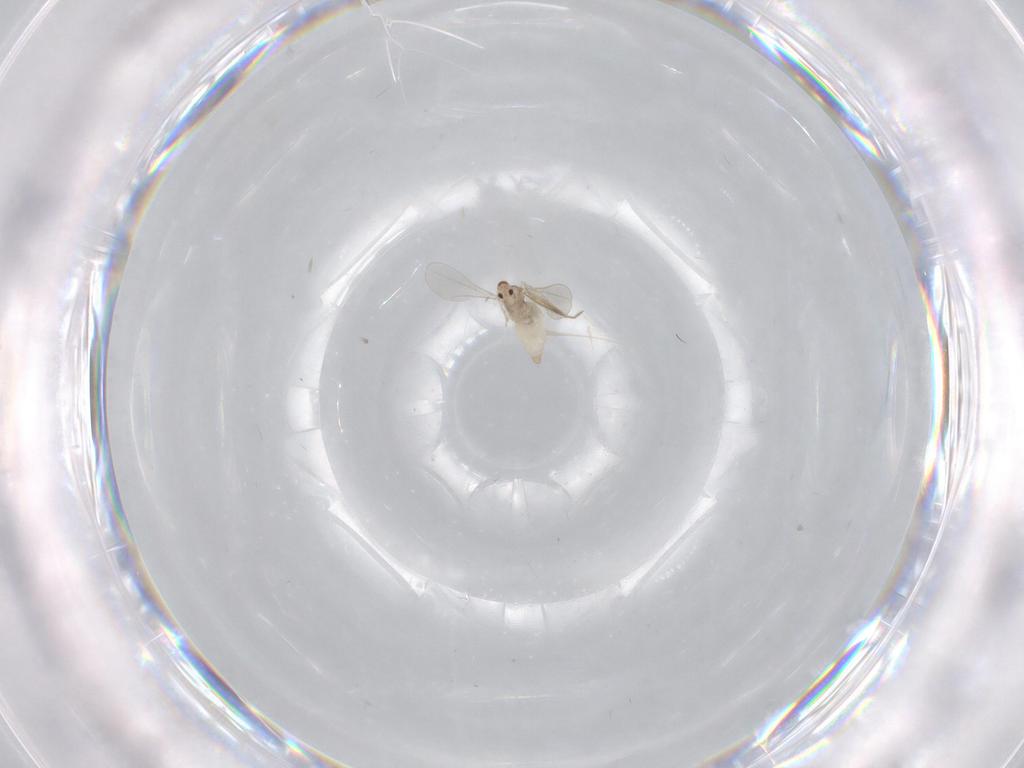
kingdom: Animalia
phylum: Arthropoda
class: Insecta
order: Diptera
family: Cecidomyiidae
